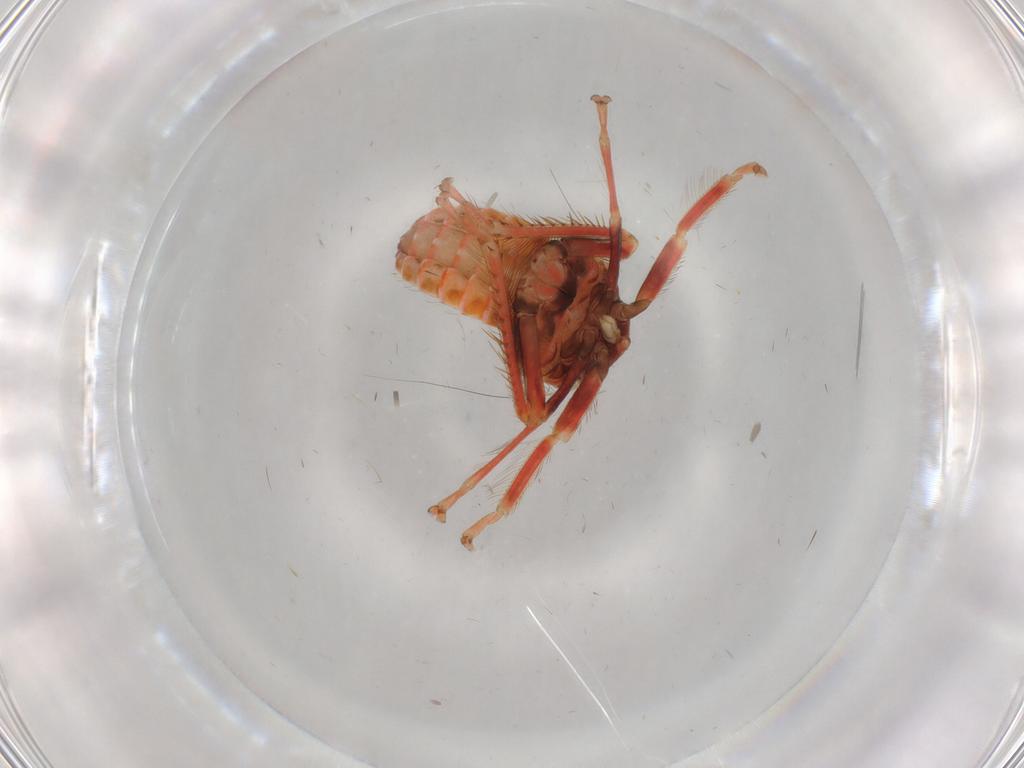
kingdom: Animalia
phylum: Arthropoda
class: Insecta
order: Hemiptera
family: Cicadellidae
